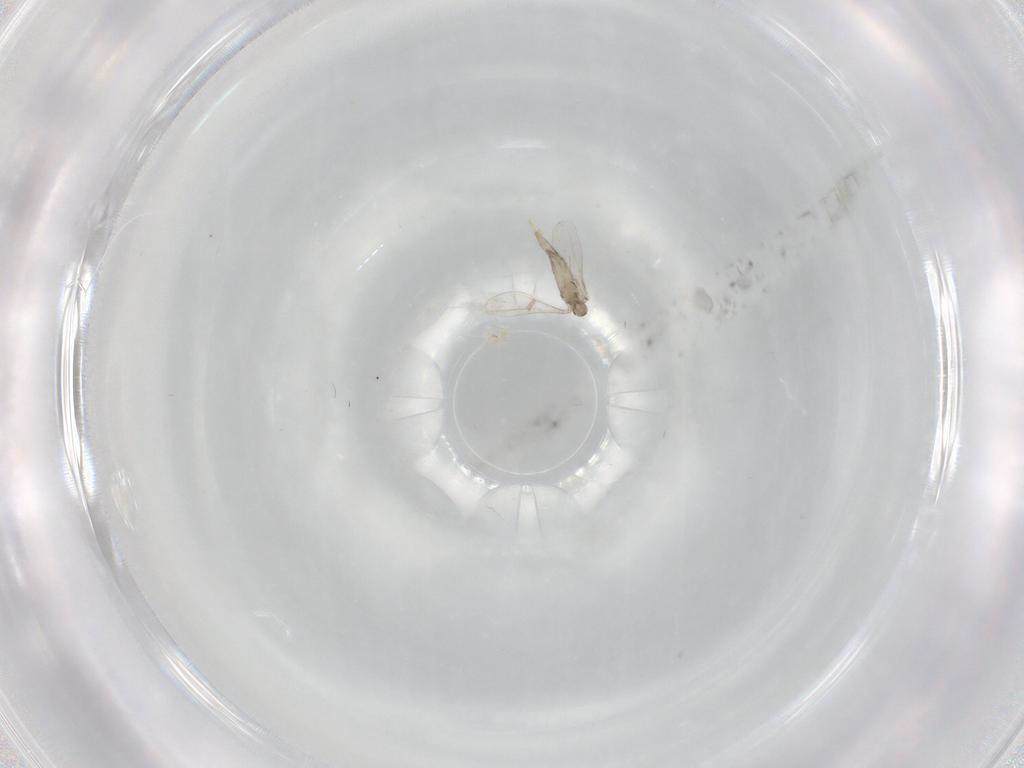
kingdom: Animalia
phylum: Arthropoda
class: Insecta
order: Diptera
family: Phoridae
